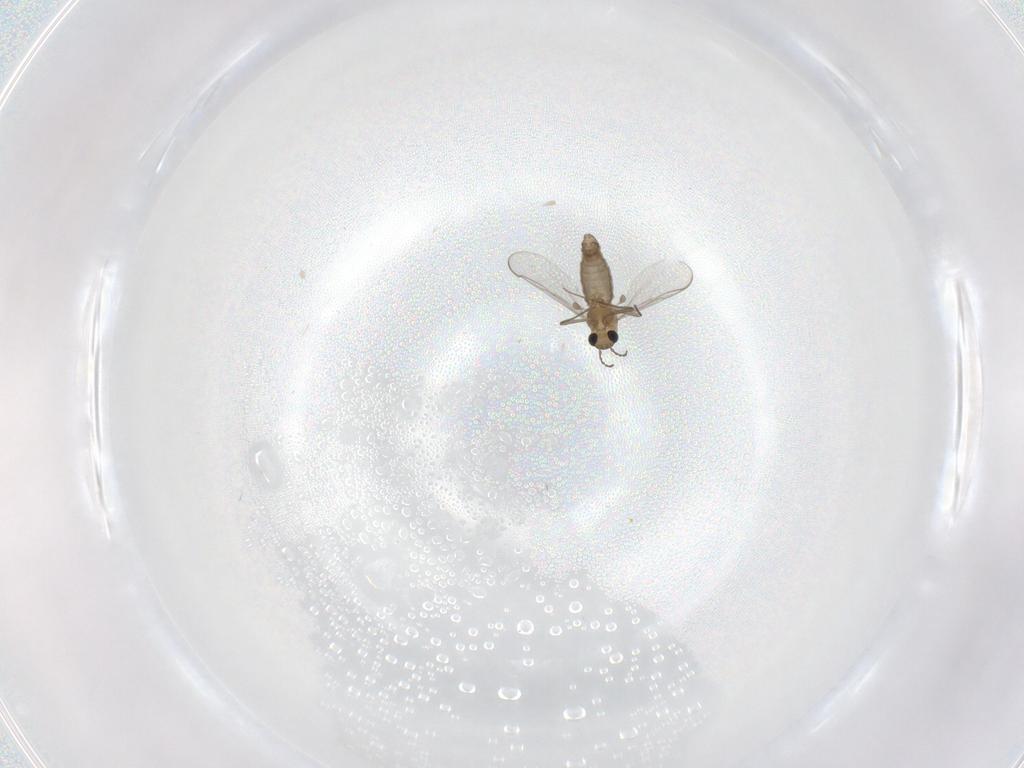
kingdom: Animalia
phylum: Arthropoda
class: Insecta
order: Diptera
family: Chironomidae
